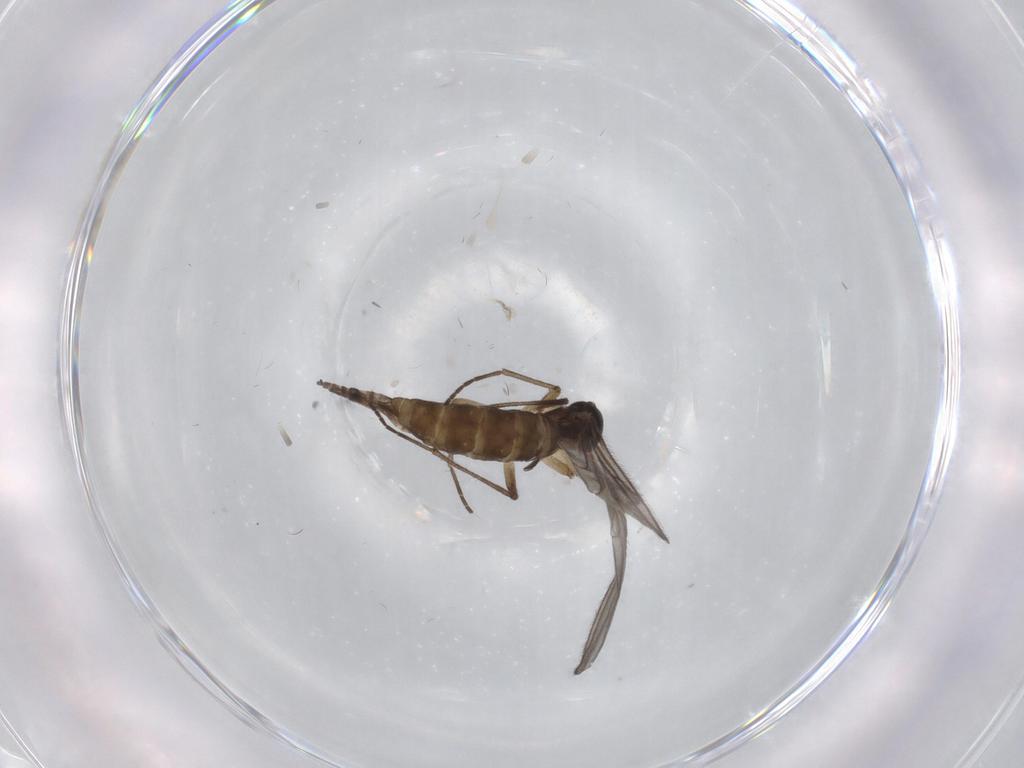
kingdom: Animalia
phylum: Arthropoda
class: Insecta
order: Diptera
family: Sciaridae
